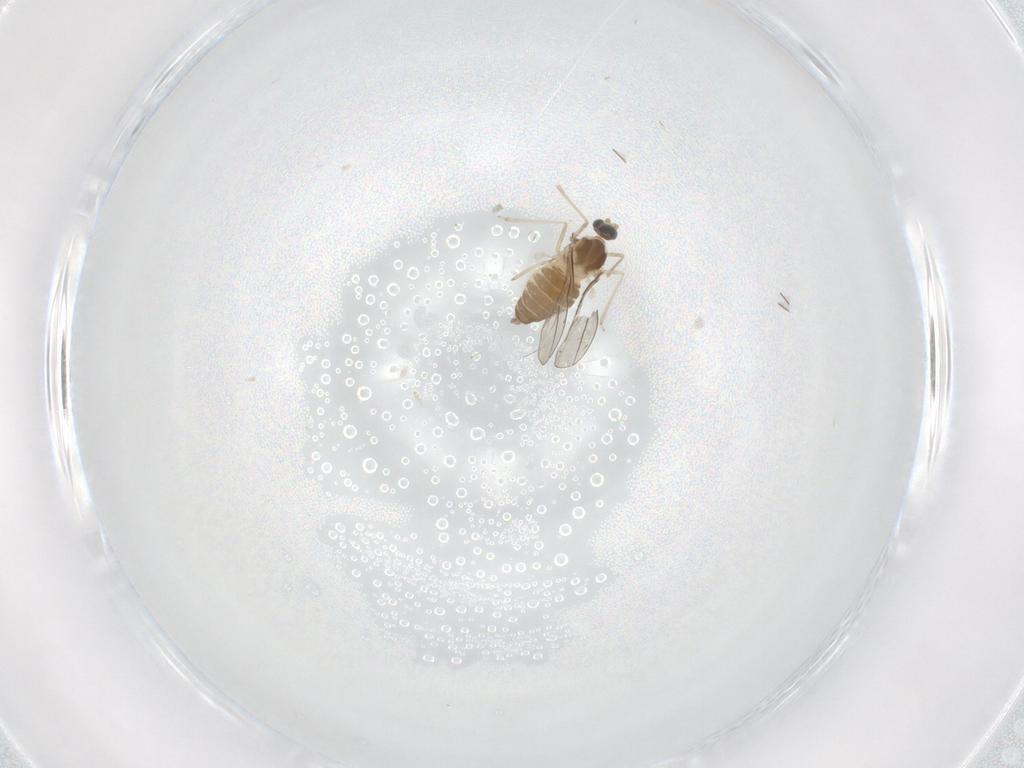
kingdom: Animalia
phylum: Arthropoda
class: Insecta
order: Diptera
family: Cecidomyiidae
